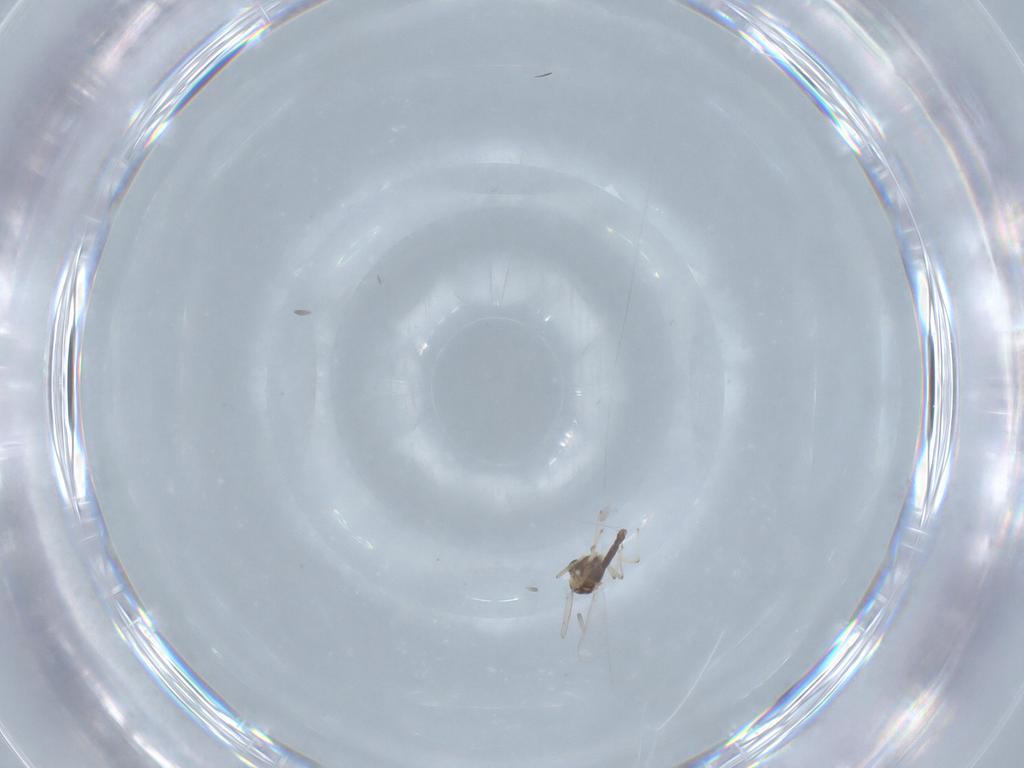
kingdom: Animalia
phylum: Arthropoda
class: Insecta
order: Diptera
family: Chironomidae
